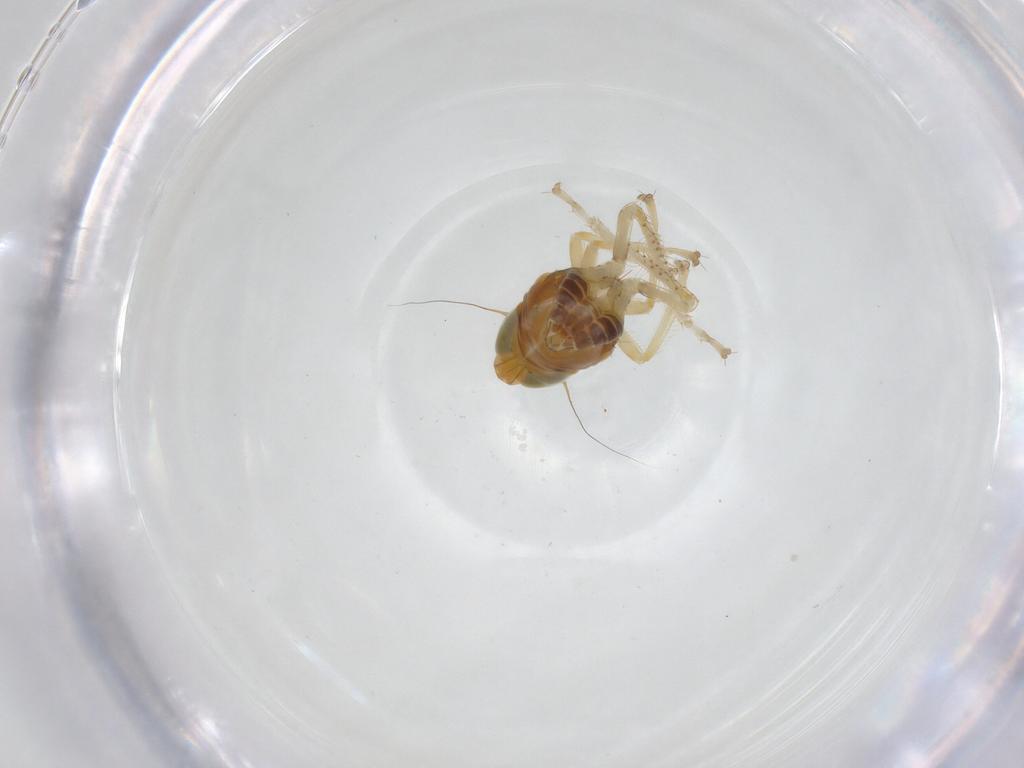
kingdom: Animalia
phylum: Arthropoda
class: Insecta
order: Hemiptera
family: Cicadellidae
